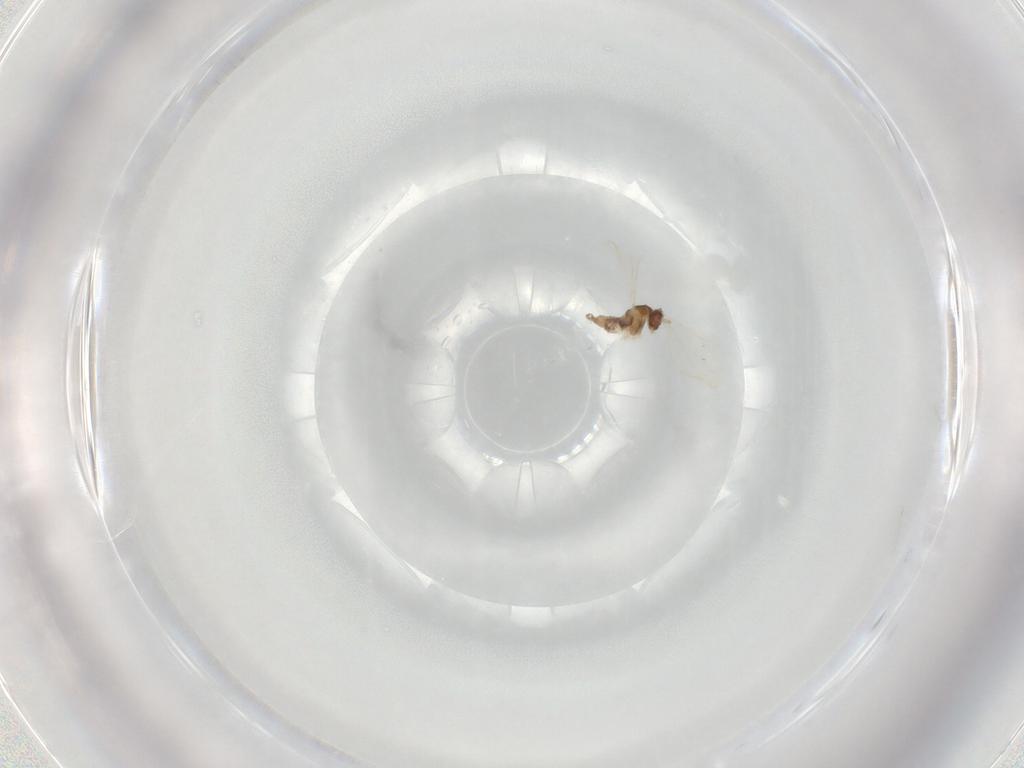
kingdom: Animalia
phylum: Arthropoda
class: Insecta
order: Diptera
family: Cecidomyiidae
